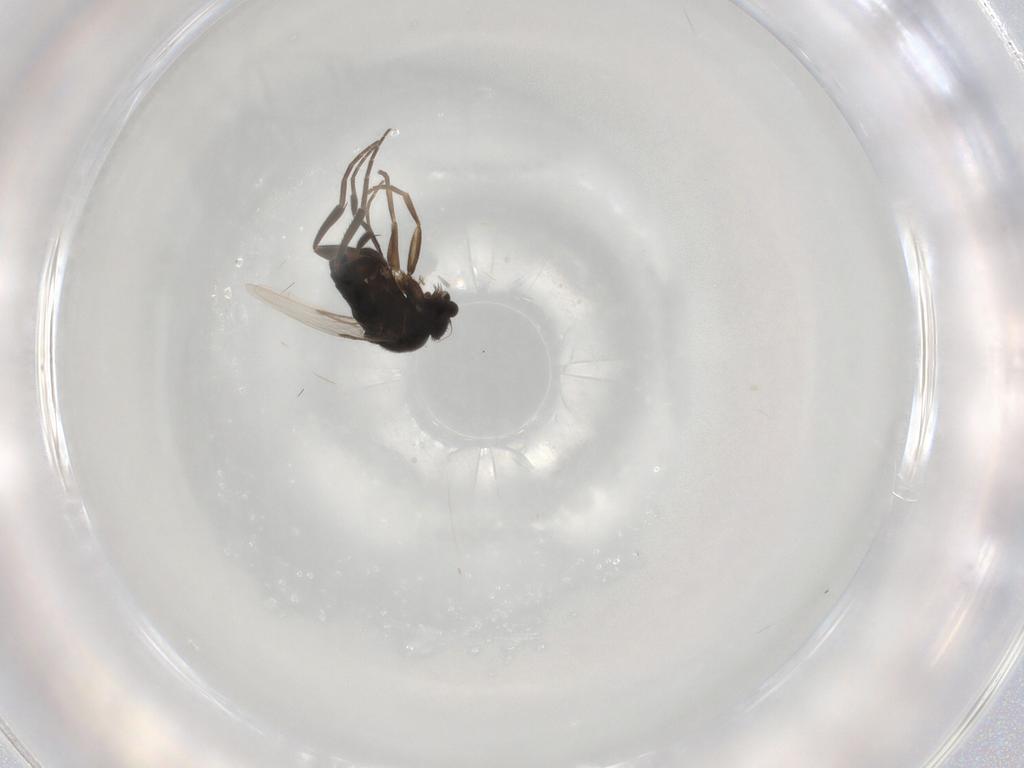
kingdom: Animalia
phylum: Arthropoda
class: Insecta
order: Diptera
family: Phoridae
